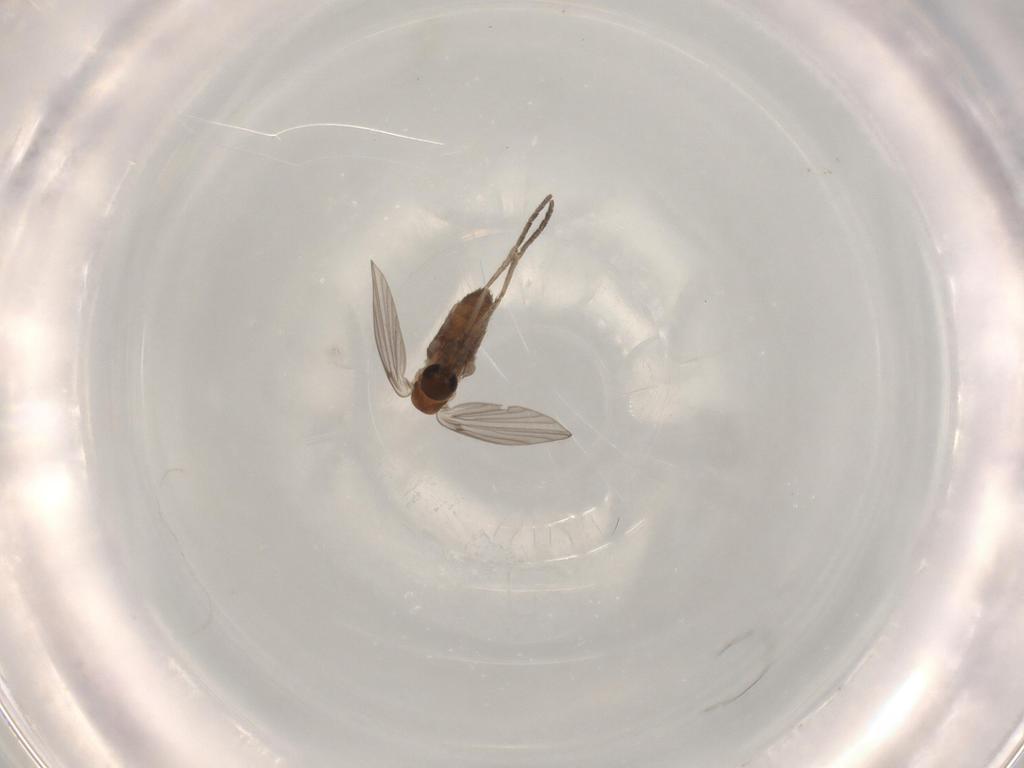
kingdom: Animalia
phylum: Arthropoda
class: Insecta
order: Diptera
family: Psychodidae
